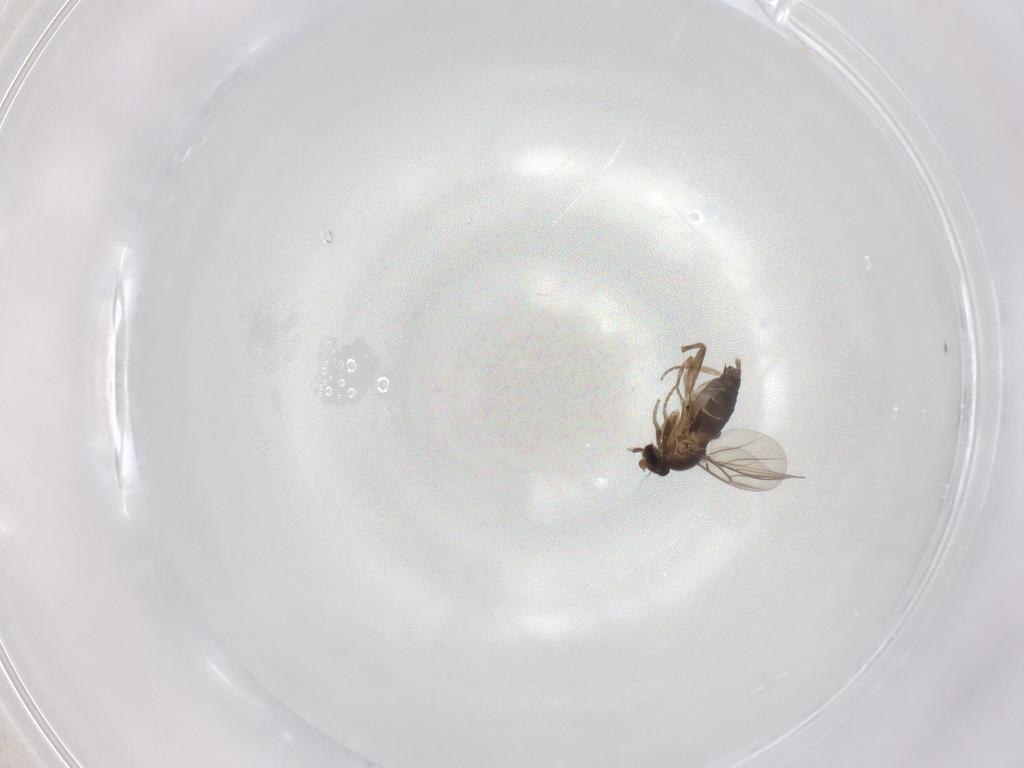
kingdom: Animalia
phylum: Arthropoda
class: Insecta
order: Diptera
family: Phoridae
